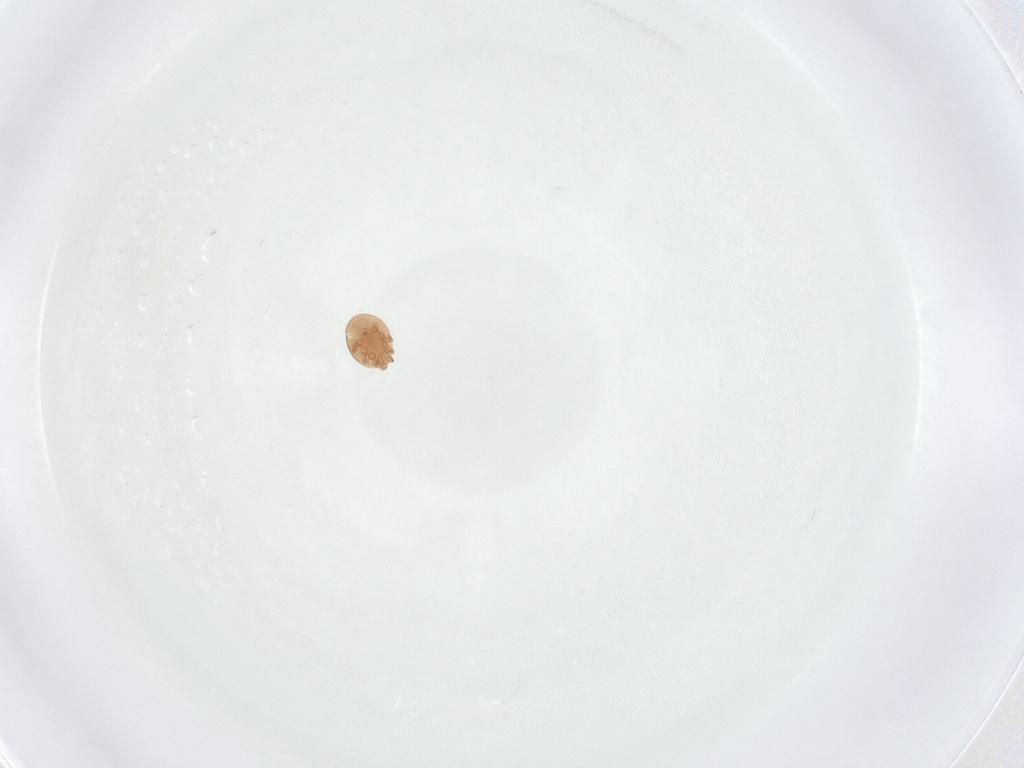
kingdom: Animalia
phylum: Arthropoda
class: Arachnida
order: Mesostigmata
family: Trematuridae
